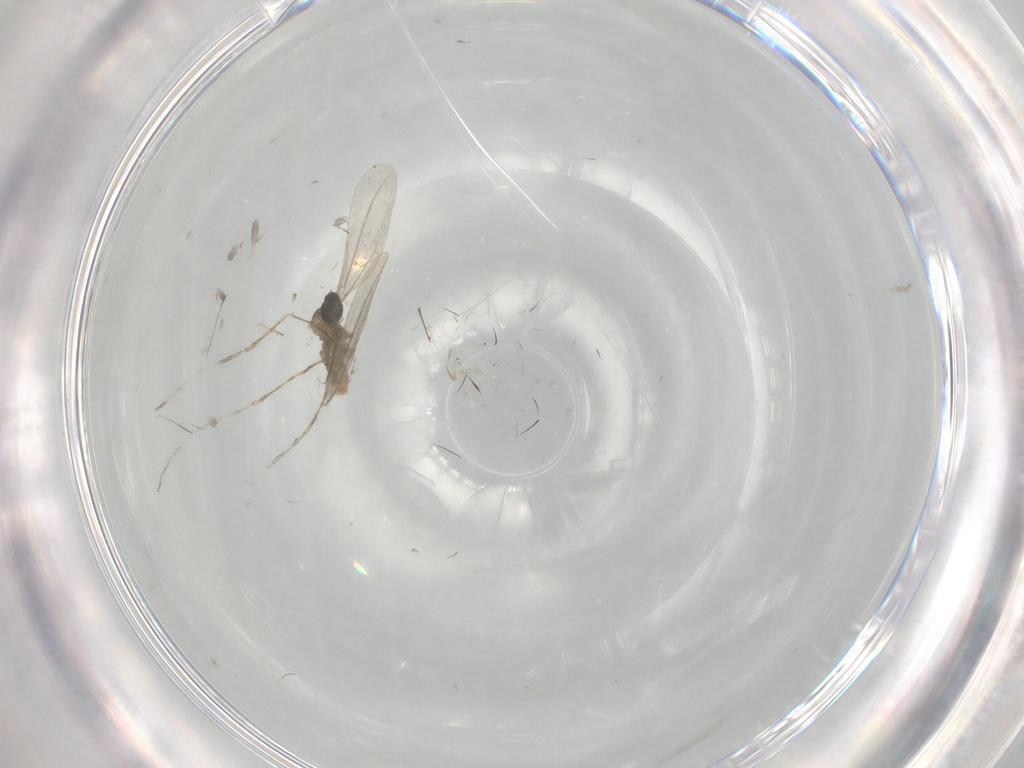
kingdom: Animalia
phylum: Arthropoda
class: Insecta
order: Diptera
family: Cecidomyiidae
